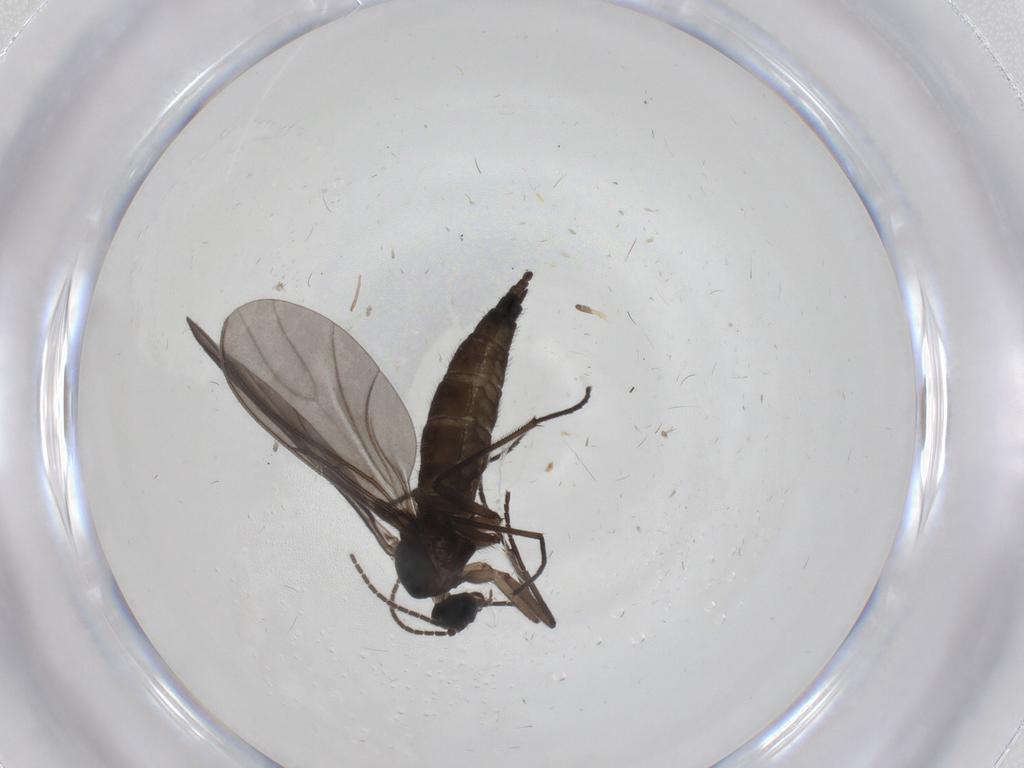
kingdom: Animalia
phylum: Arthropoda
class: Insecta
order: Diptera
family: Sciaridae
